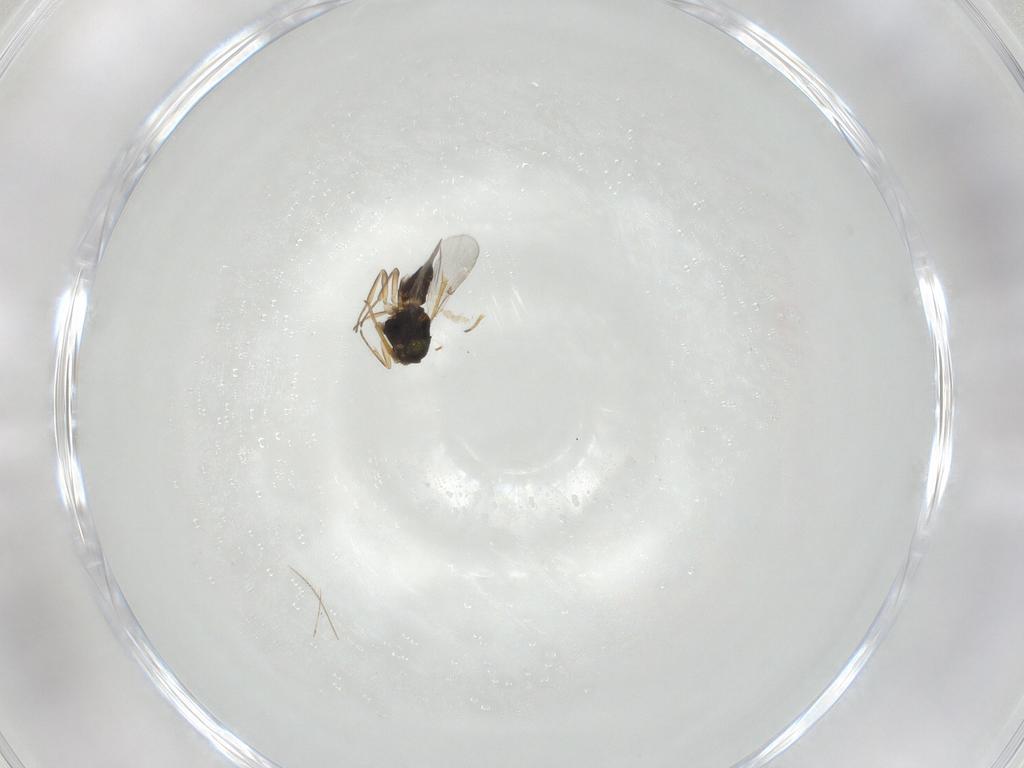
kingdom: Animalia
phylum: Arthropoda
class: Insecta
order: Hymenoptera
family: Encyrtidae
